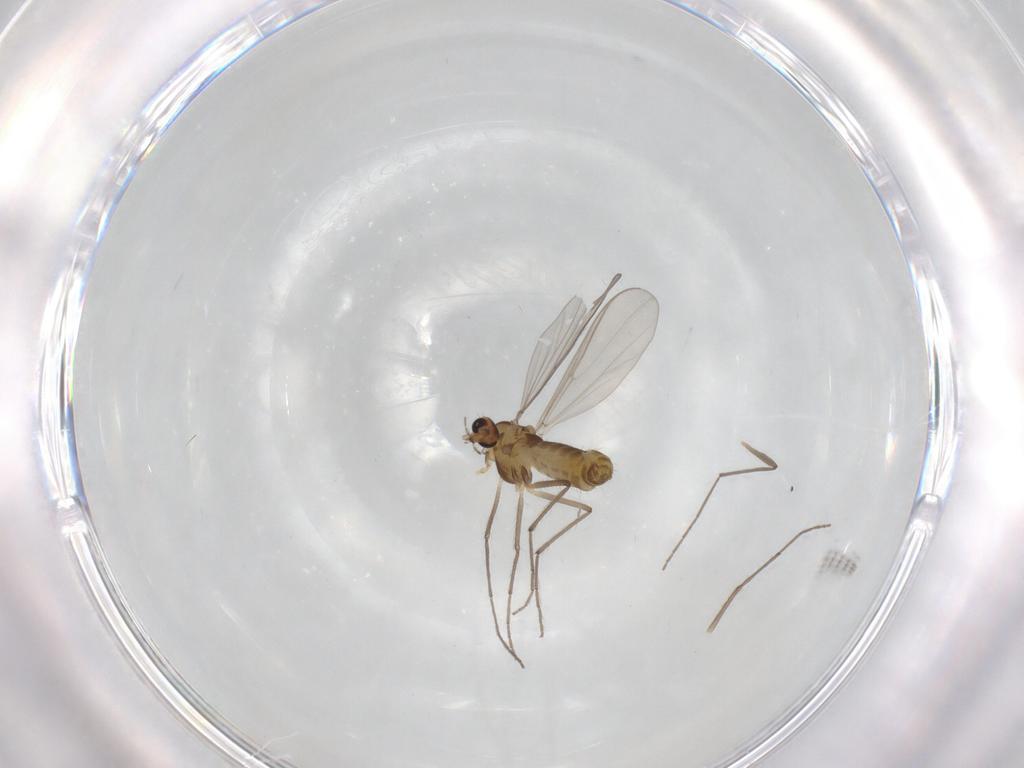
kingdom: Animalia
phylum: Arthropoda
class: Insecta
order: Diptera
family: Chironomidae
